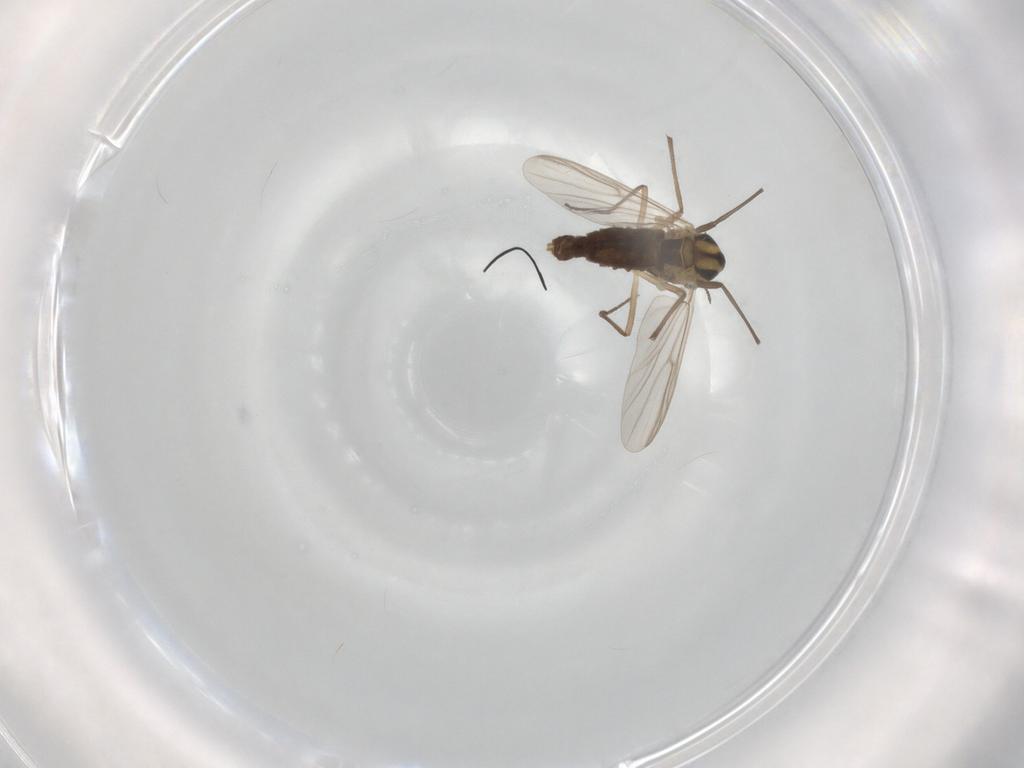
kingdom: Animalia
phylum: Arthropoda
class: Insecta
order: Diptera
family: Chironomidae
